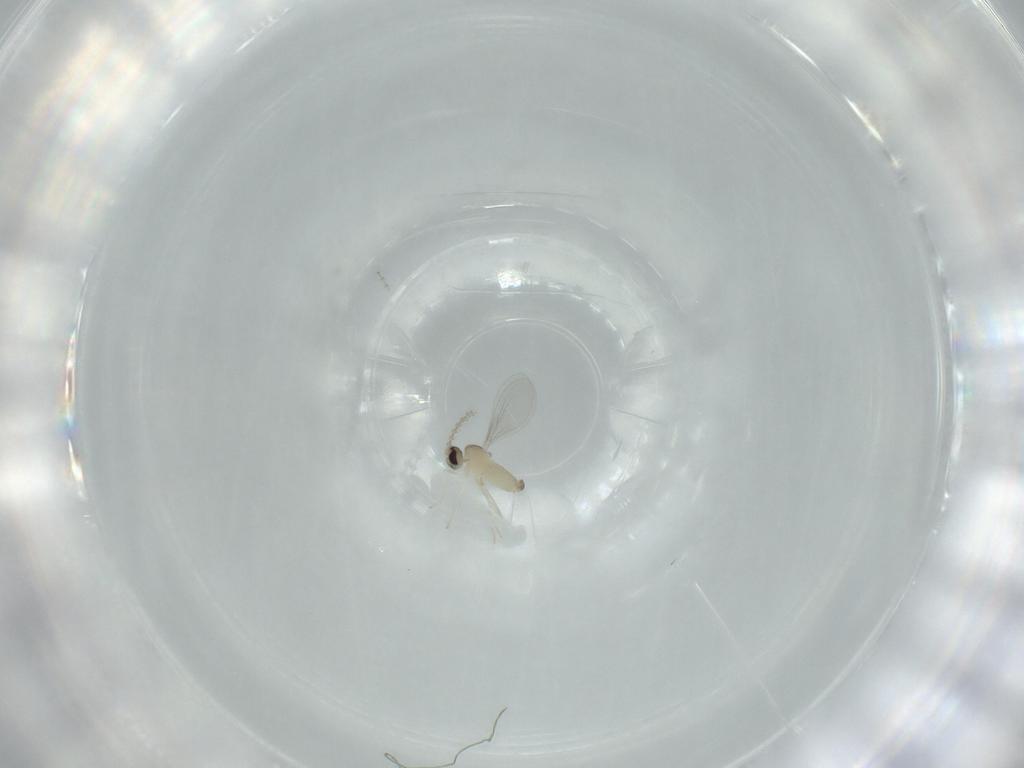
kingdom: Animalia
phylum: Arthropoda
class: Insecta
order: Diptera
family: Cecidomyiidae
